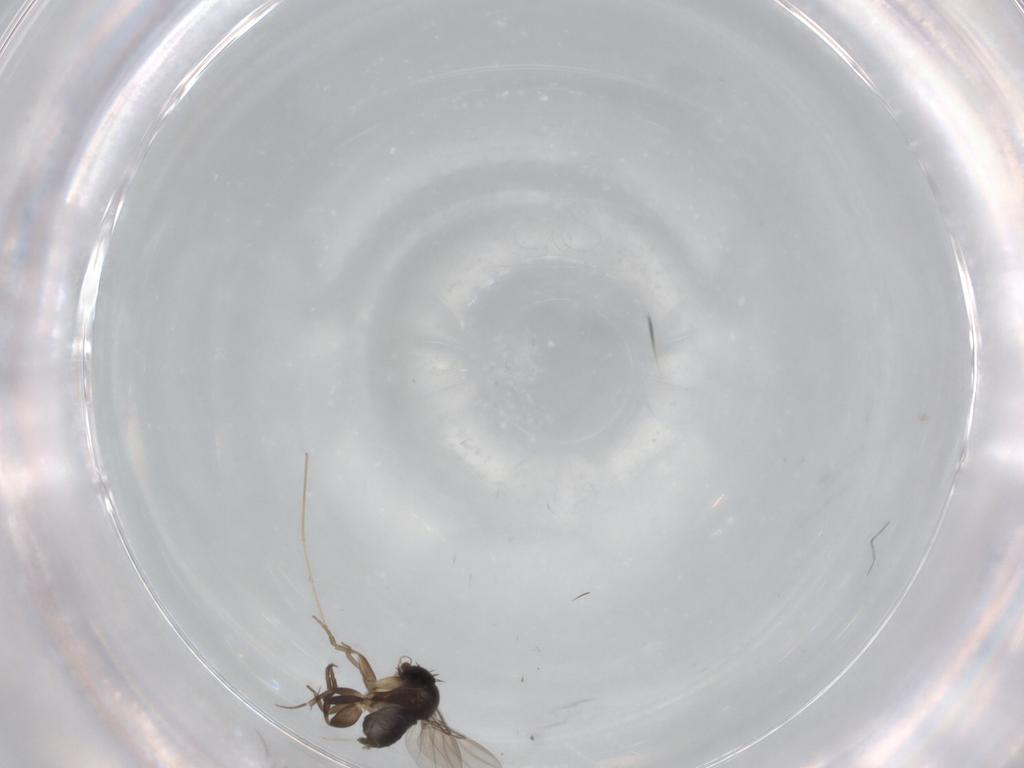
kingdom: Animalia
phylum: Arthropoda
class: Insecta
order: Diptera
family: Phoridae
